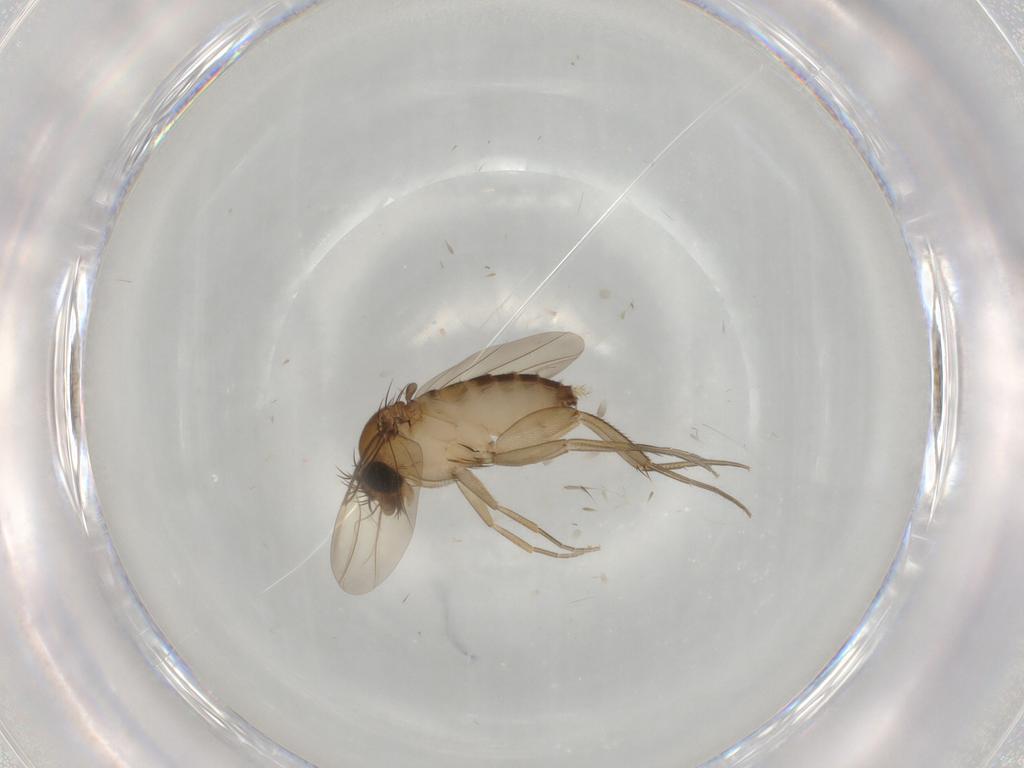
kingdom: Animalia
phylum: Arthropoda
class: Insecta
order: Diptera
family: Phoridae
